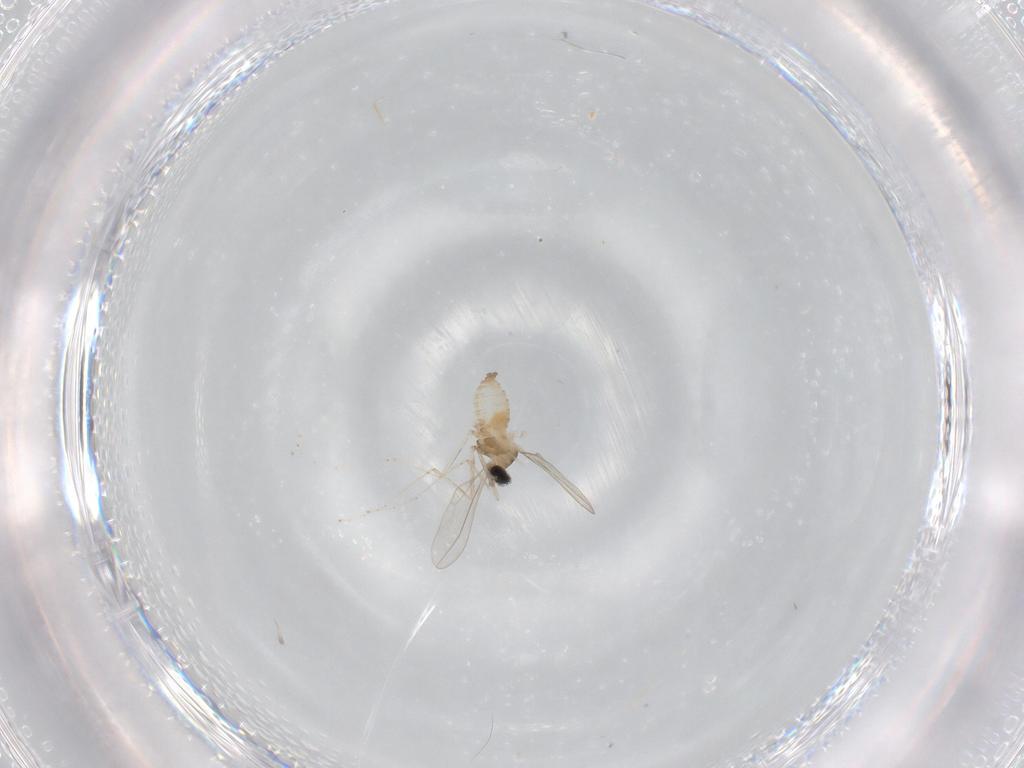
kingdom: Animalia
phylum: Arthropoda
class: Insecta
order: Diptera
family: Cecidomyiidae
